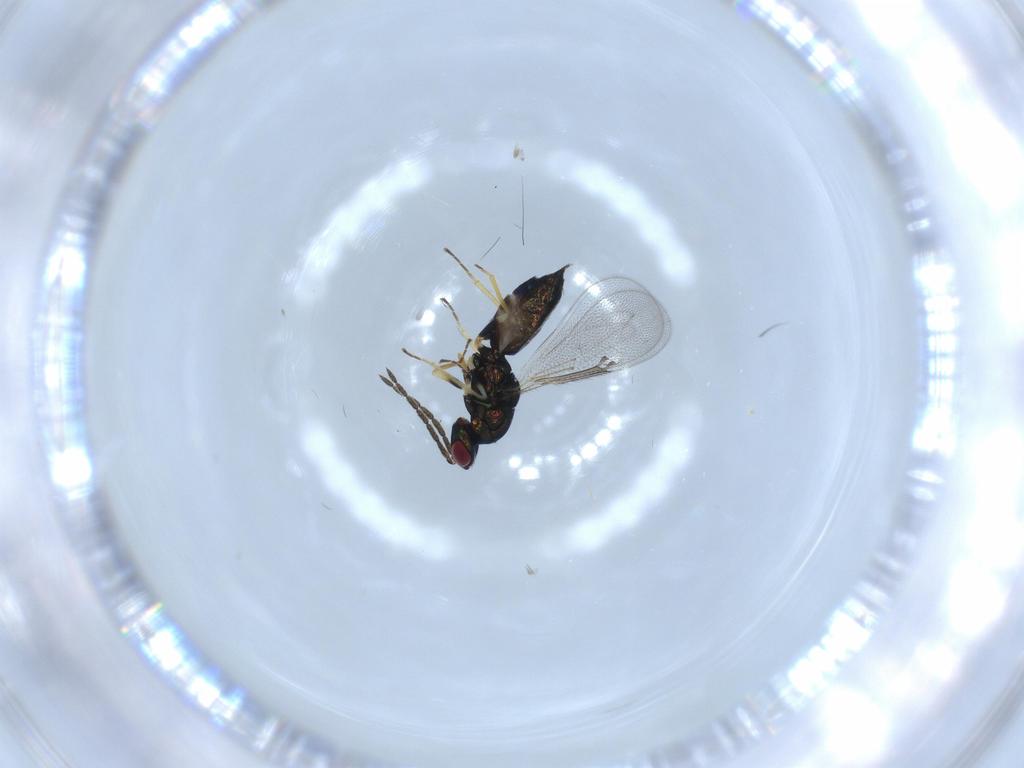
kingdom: Animalia
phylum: Arthropoda
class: Insecta
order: Hymenoptera
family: Eulophidae
